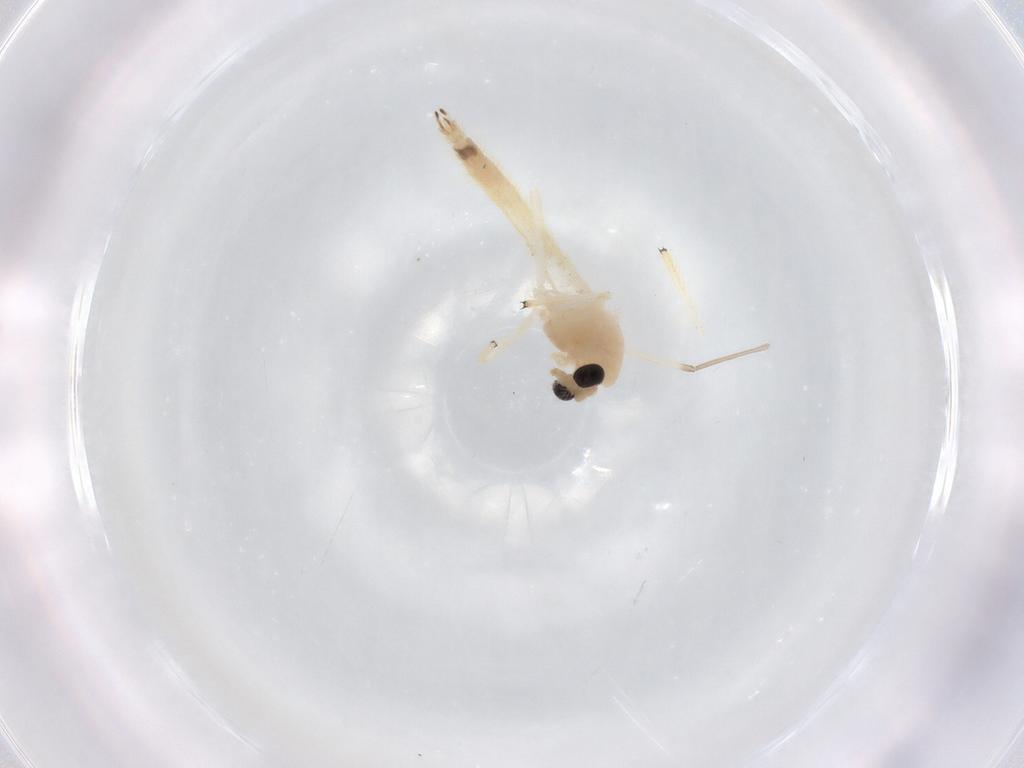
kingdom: Animalia
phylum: Arthropoda
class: Insecta
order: Diptera
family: Chironomidae
